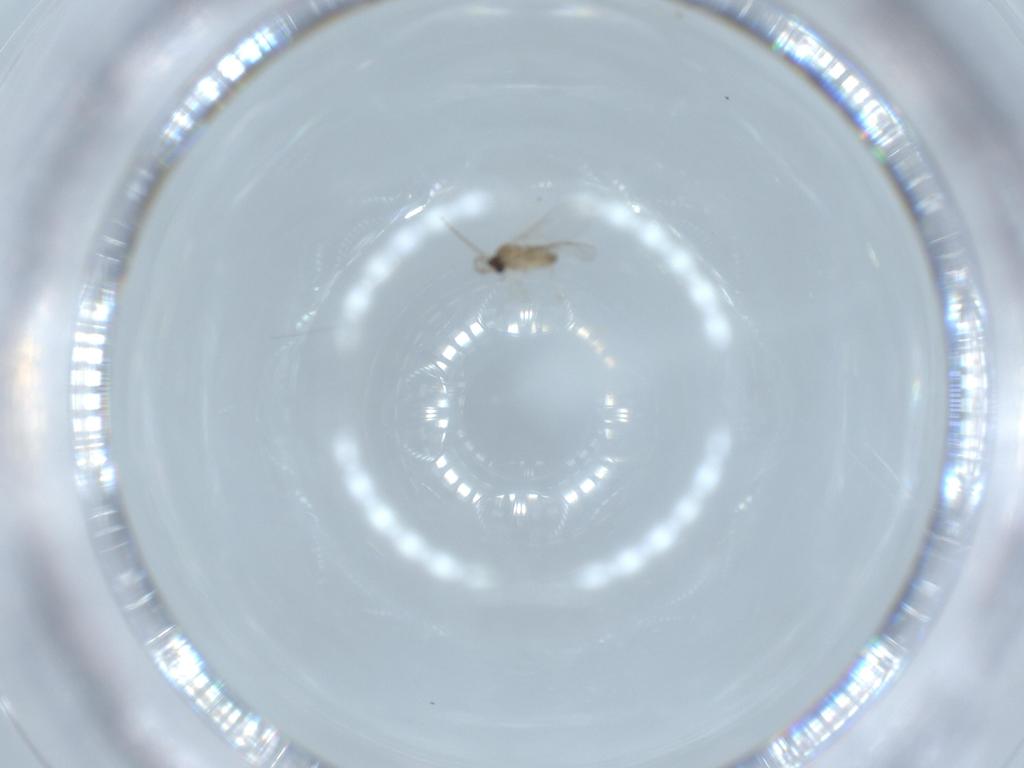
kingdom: Animalia
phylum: Arthropoda
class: Insecta
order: Diptera
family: Cecidomyiidae
